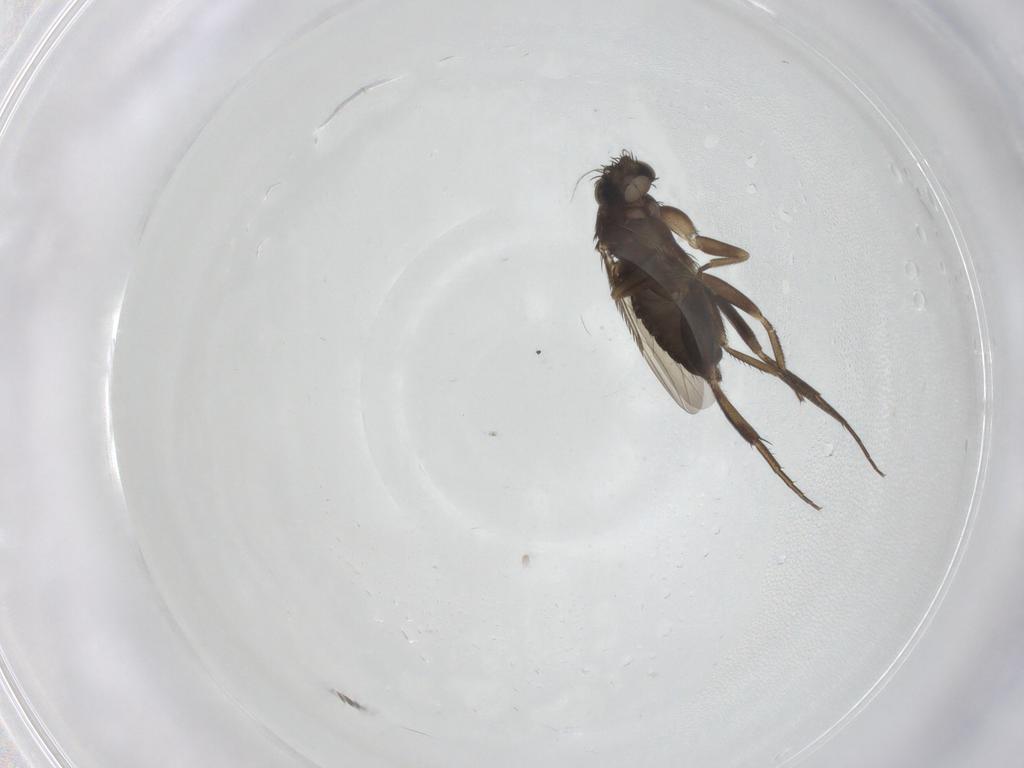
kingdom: Animalia
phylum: Arthropoda
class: Insecta
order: Diptera
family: Phoridae
